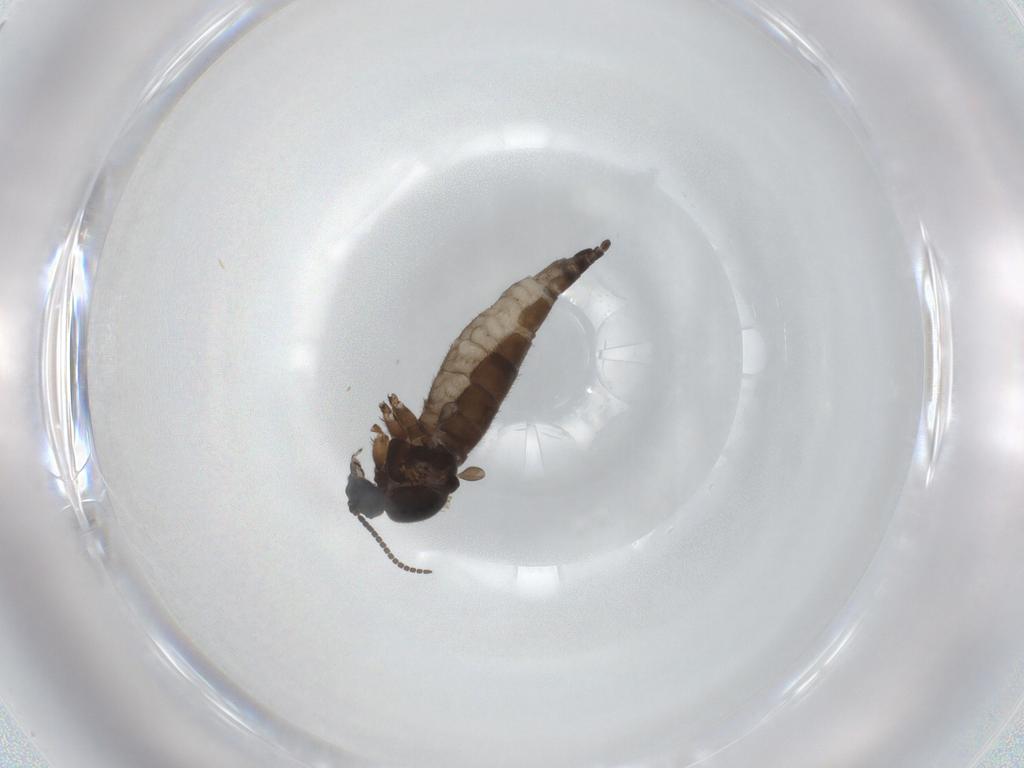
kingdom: Animalia
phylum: Arthropoda
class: Insecta
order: Diptera
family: Sciaridae
